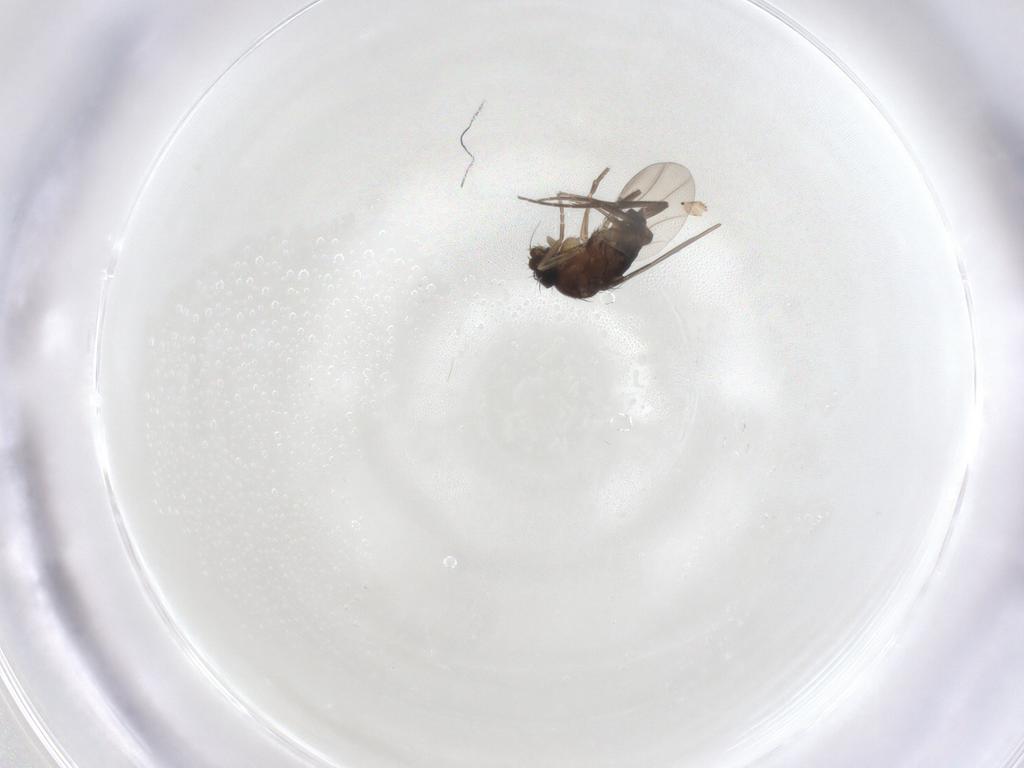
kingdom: Animalia
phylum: Arthropoda
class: Insecta
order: Diptera
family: Phoridae
